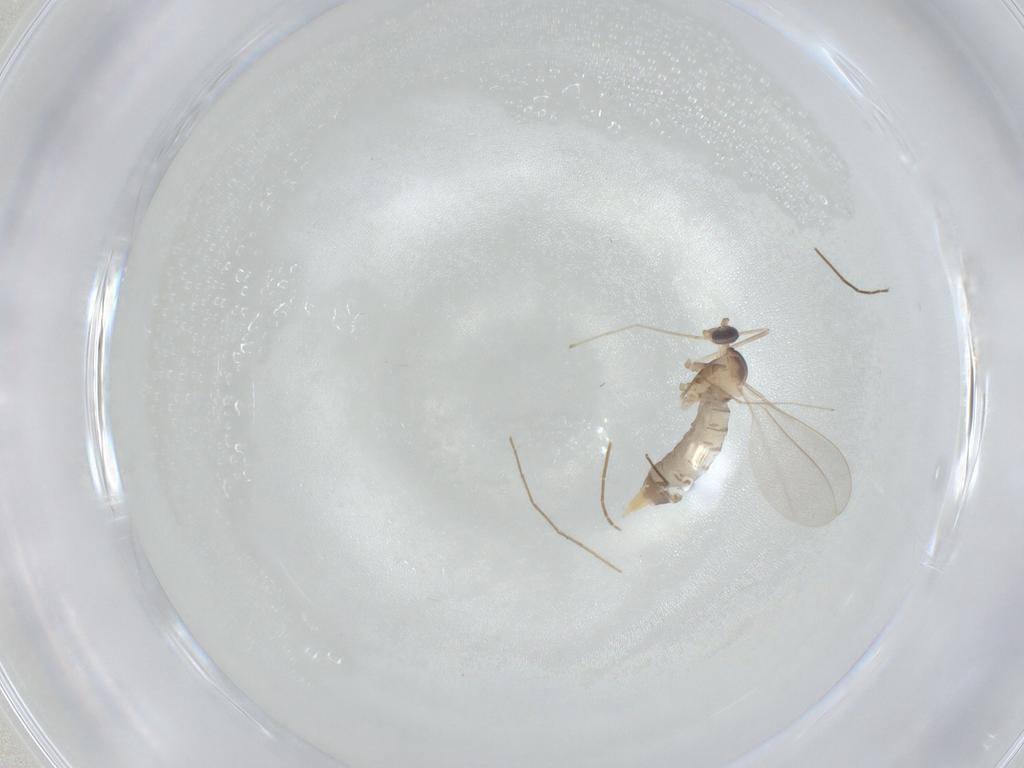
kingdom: Animalia
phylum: Arthropoda
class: Insecta
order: Diptera
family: Cecidomyiidae
